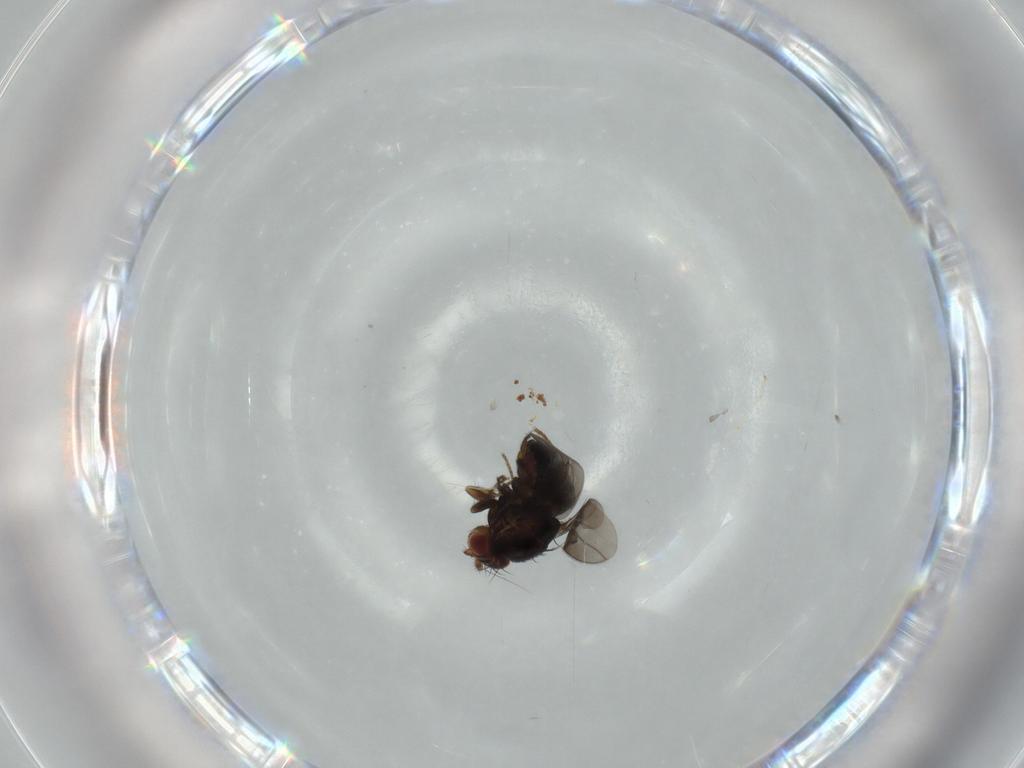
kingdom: Animalia
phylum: Arthropoda
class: Insecta
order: Diptera
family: Sphaeroceridae
